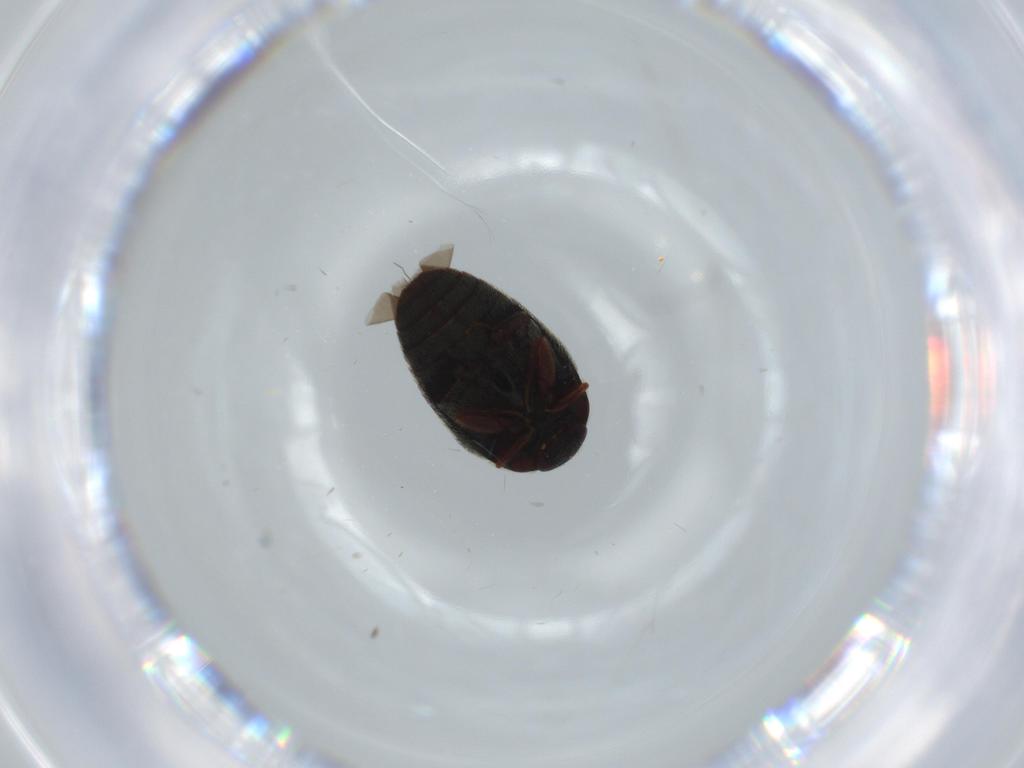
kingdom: Animalia
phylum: Arthropoda
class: Insecta
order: Coleoptera
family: Dermestidae
